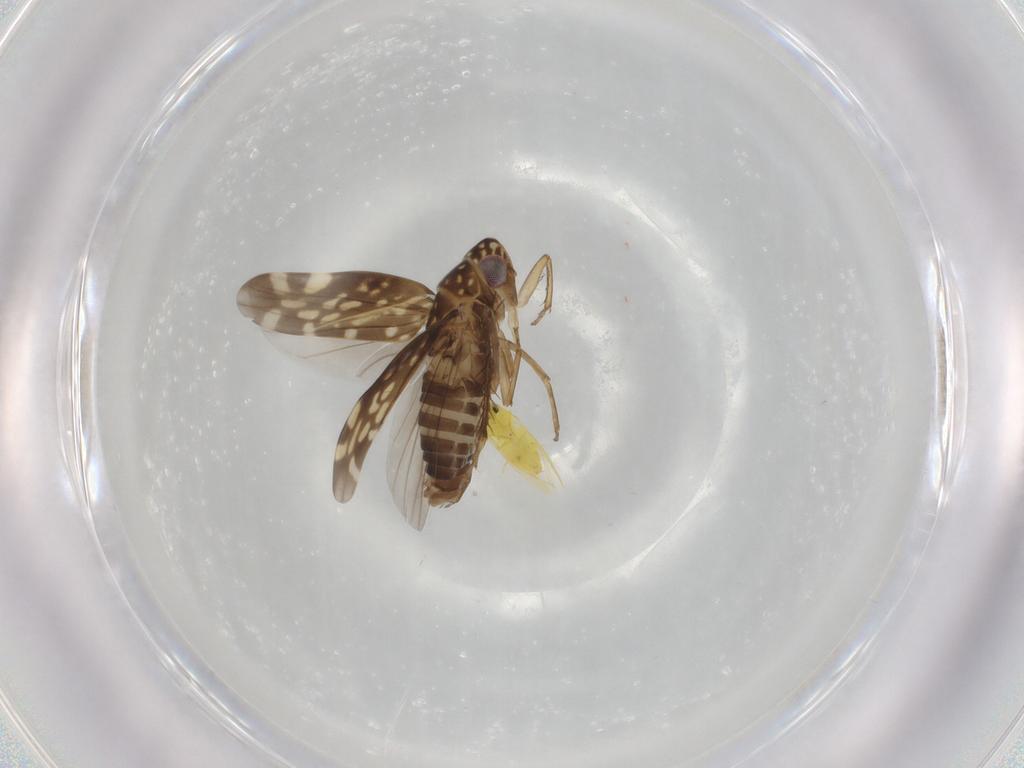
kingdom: Animalia
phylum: Arthropoda
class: Insecta
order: Hemiptera
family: Cicadellidae
